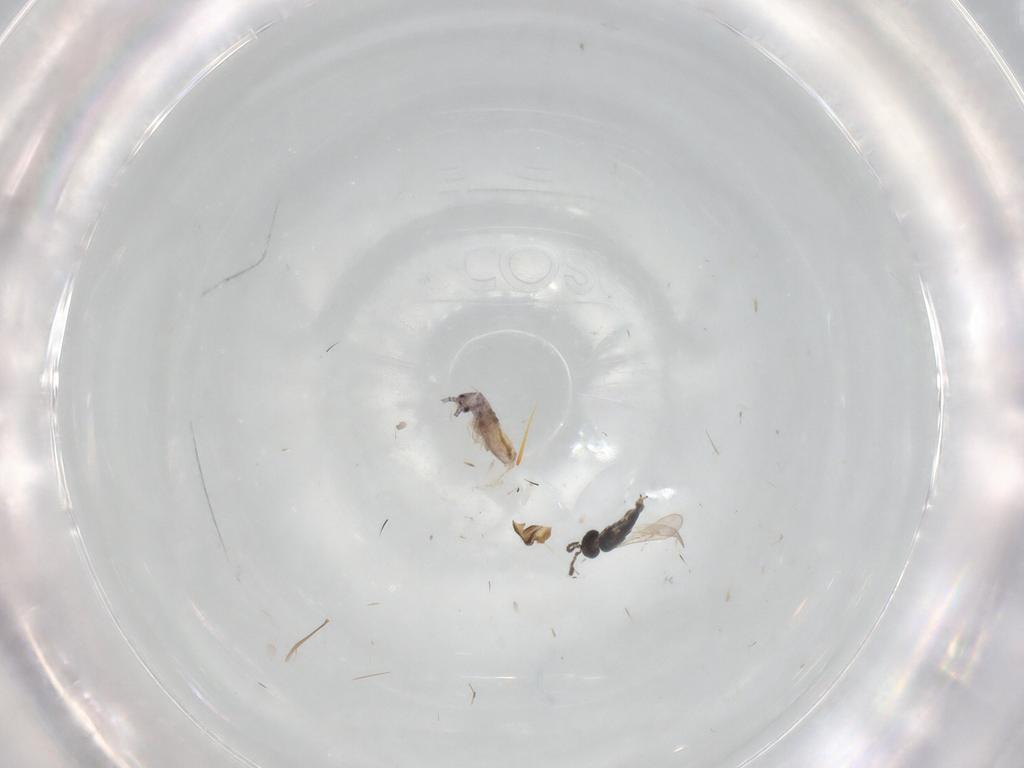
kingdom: Animalia
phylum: Arthropoda
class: Insecta
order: Hymenoptera
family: Scelionidae
